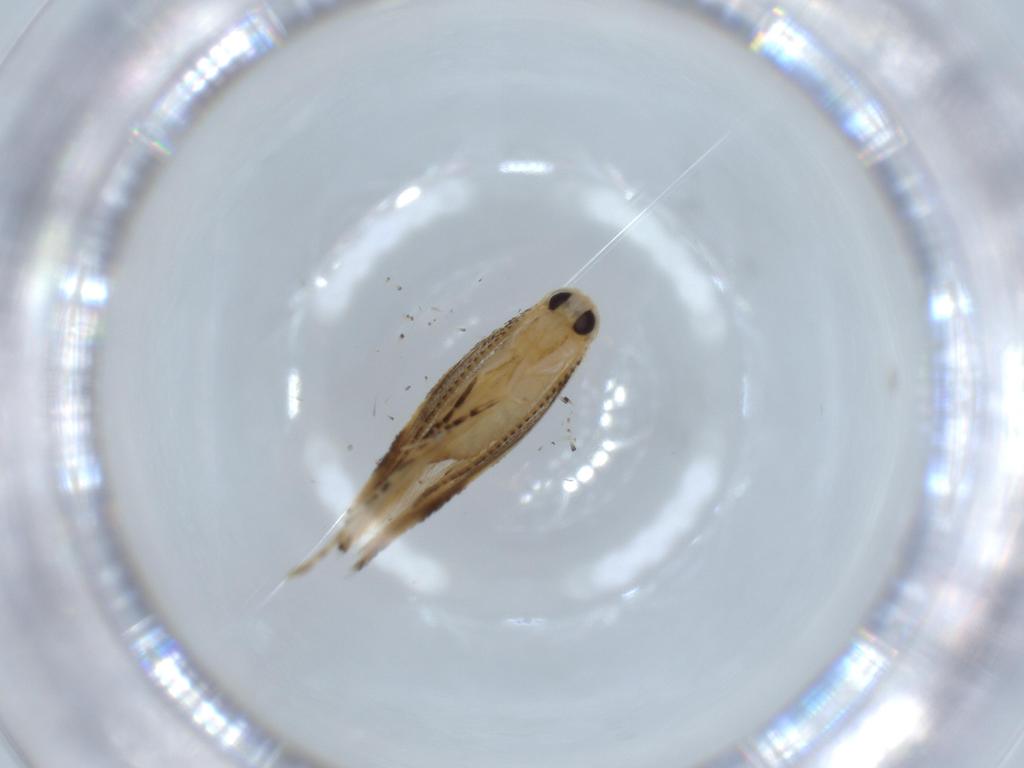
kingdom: Animalia
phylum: Arthropoda
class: Insecta
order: Lepidoptera
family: Bucculatricidae
